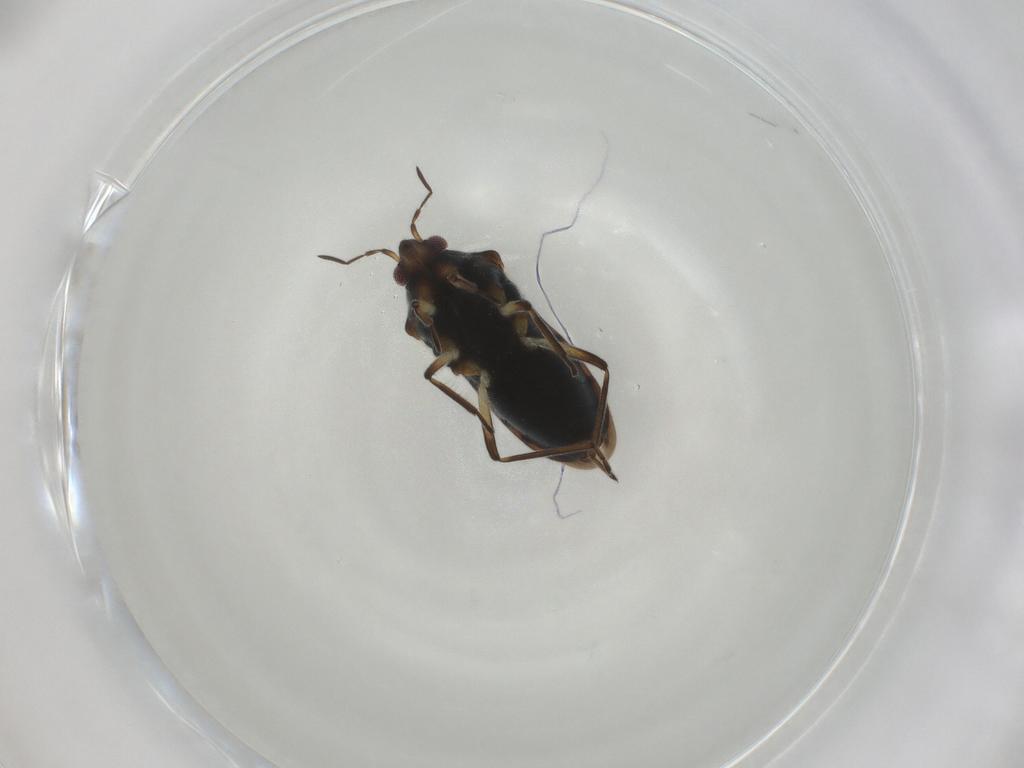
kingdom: Animalia
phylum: Arthropoda
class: Insecta
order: Hemiptera
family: Veliidae
